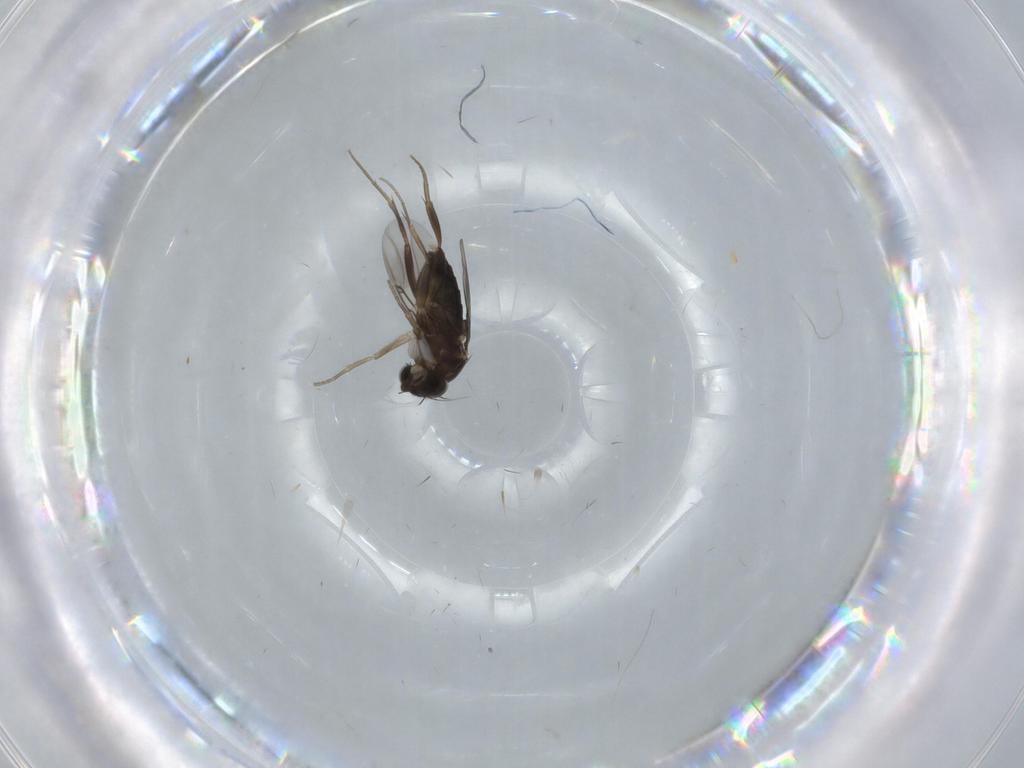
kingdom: Animalia
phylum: Arthropoda
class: Insecta
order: Diptera
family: Phoridae
